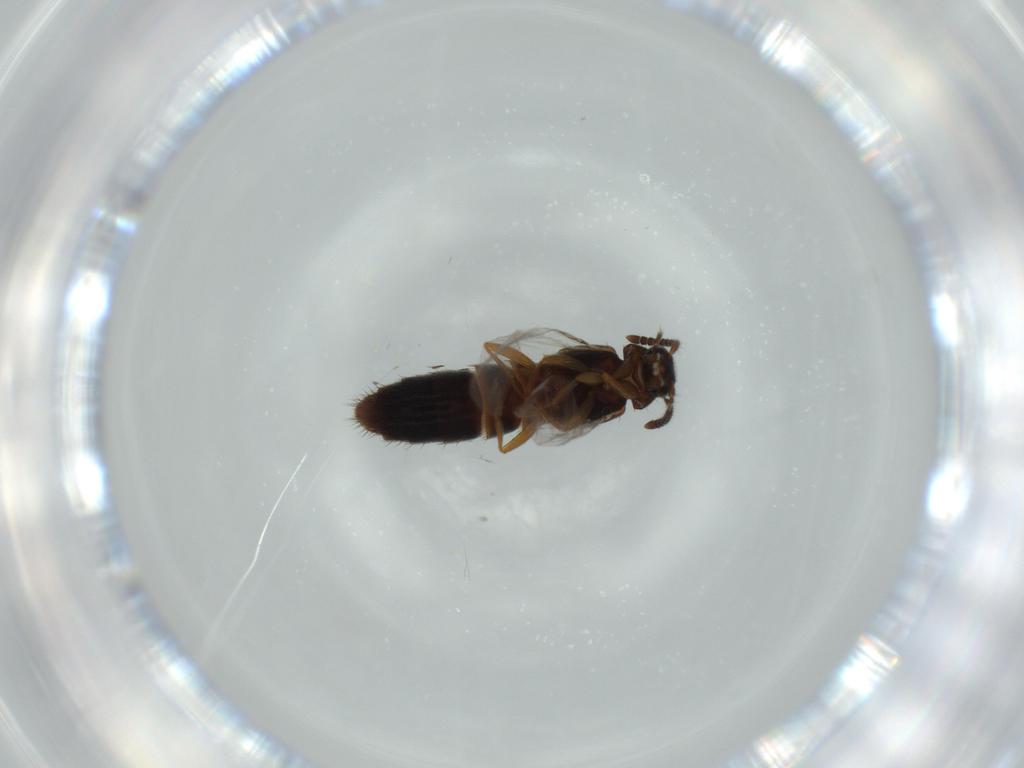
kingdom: Animalia
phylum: Arthropoda
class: Insecta
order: Coleoptera
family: Elateridae
